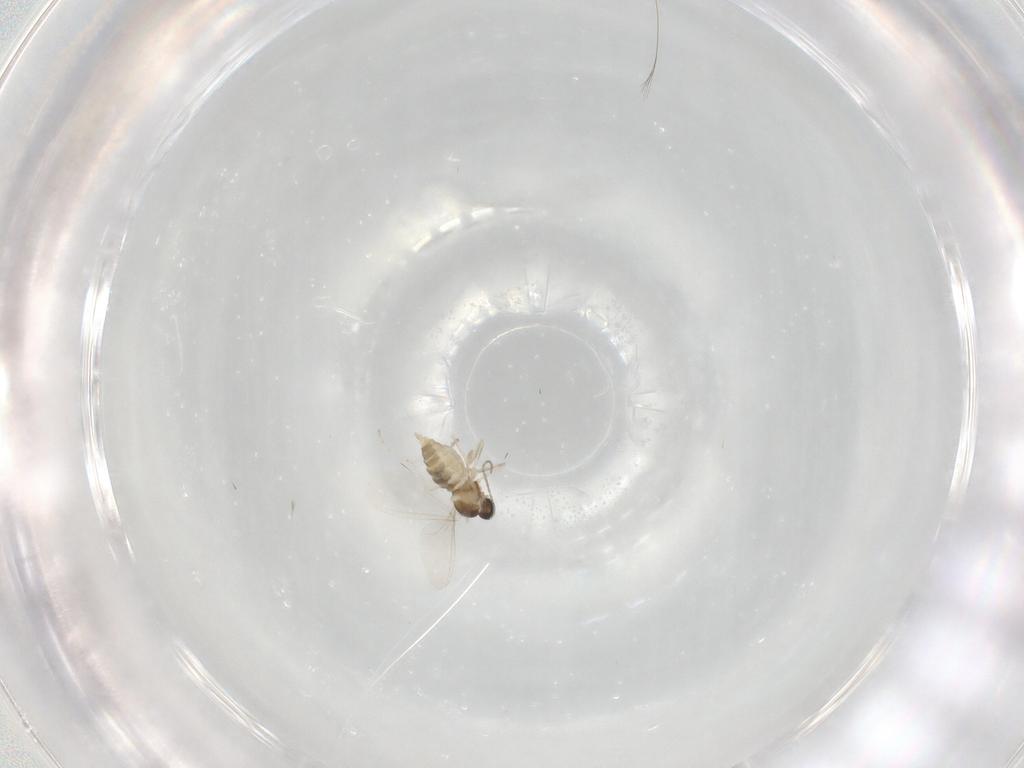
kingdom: Animalia
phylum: Arthropoda
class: Insecta
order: Diptera
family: Cecidomyiidae
